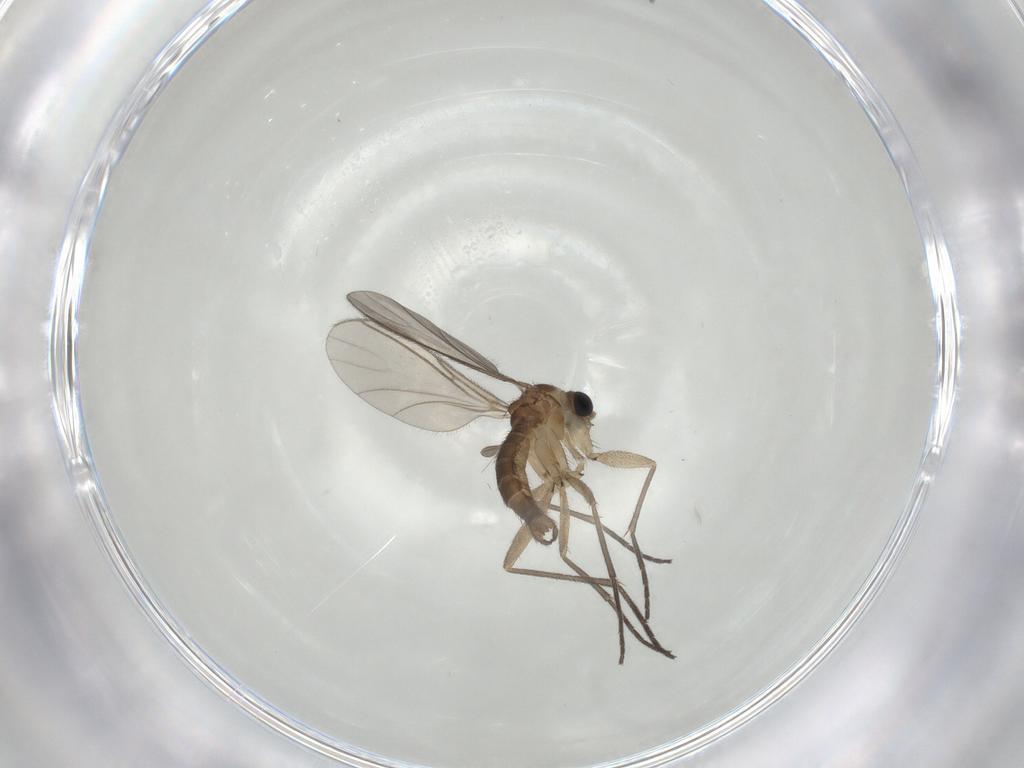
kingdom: Animalia
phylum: Arthropoda
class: Insecta
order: Diptera
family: Sciaridae
